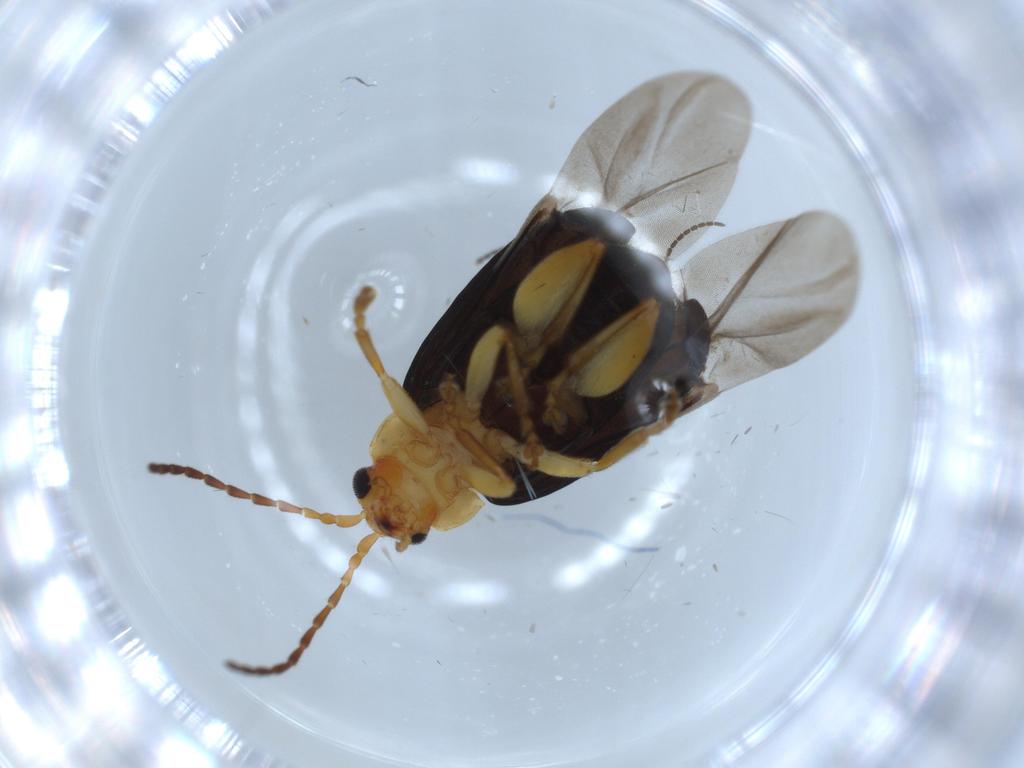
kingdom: Animalia
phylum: Arthropoda
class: Insecta
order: Coleoptera
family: Chrysomelidae
